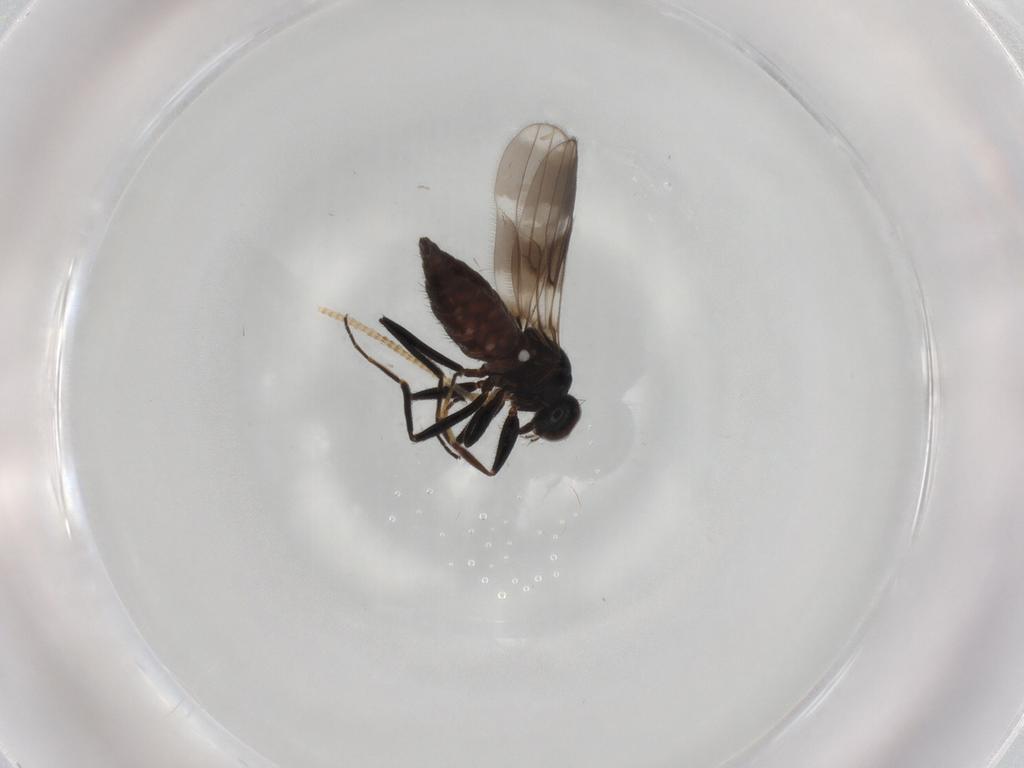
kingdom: Animalia
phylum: Arthropoda
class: Insecta
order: Diptera
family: Hybotidae
